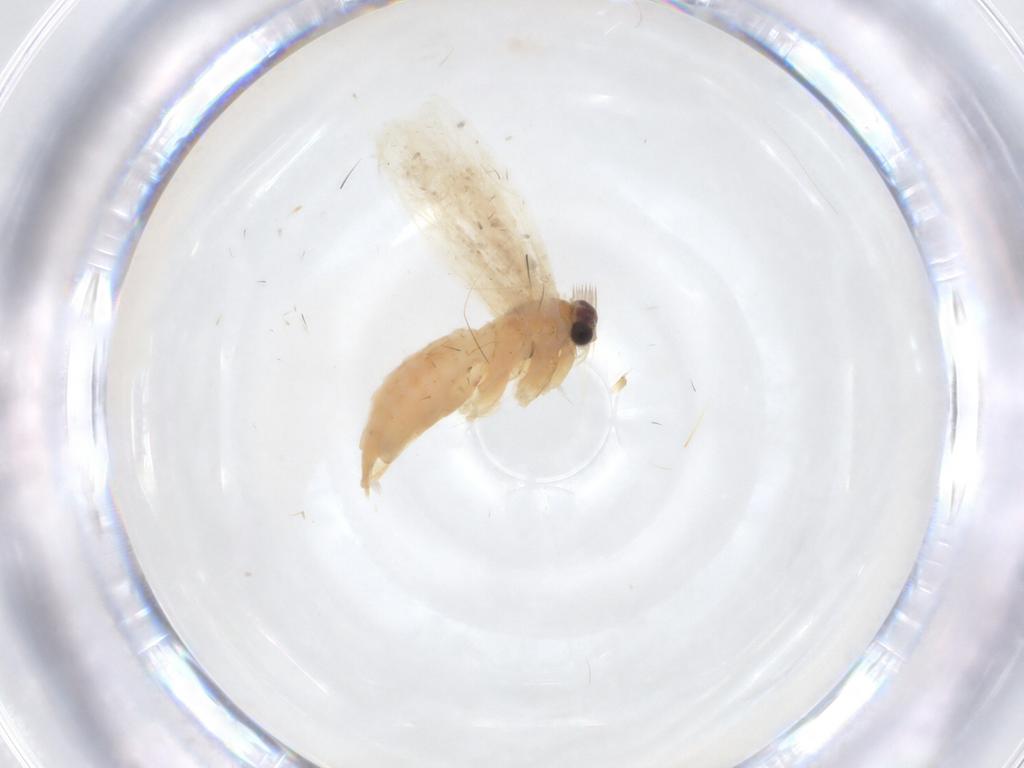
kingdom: Animalia
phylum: Arthropoda
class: Insecta
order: Lepidoptera
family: Tineidae
